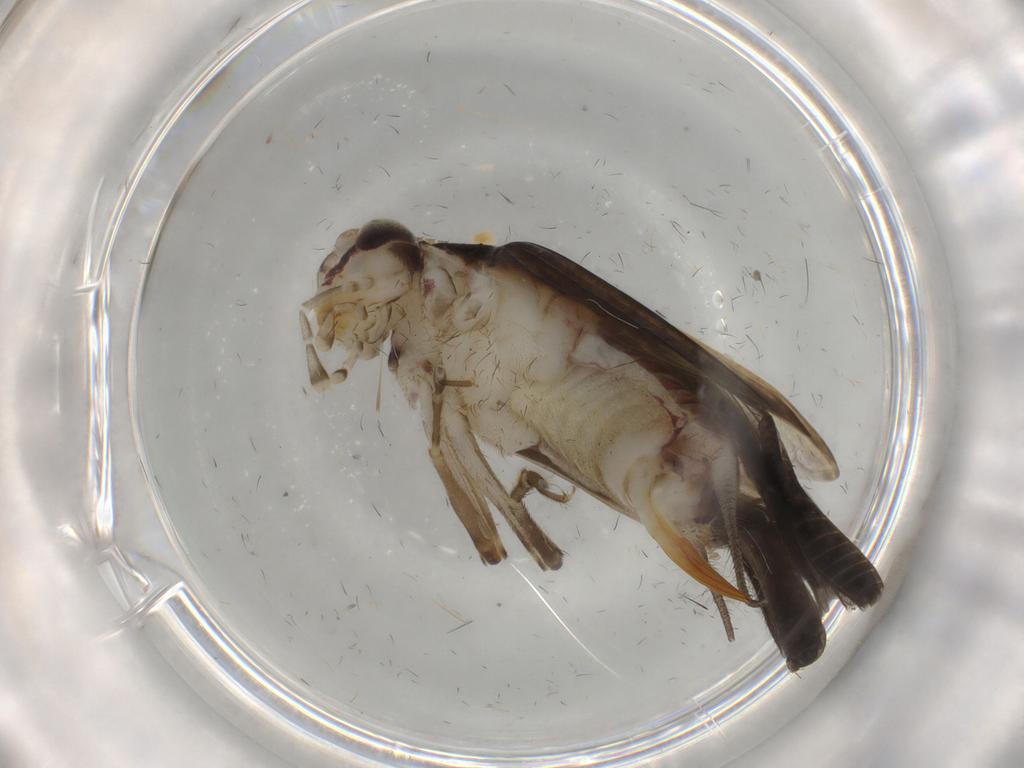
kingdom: Animalia
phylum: Arthropoda
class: Insecta
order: Orthoptera
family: Trigonidiidae
